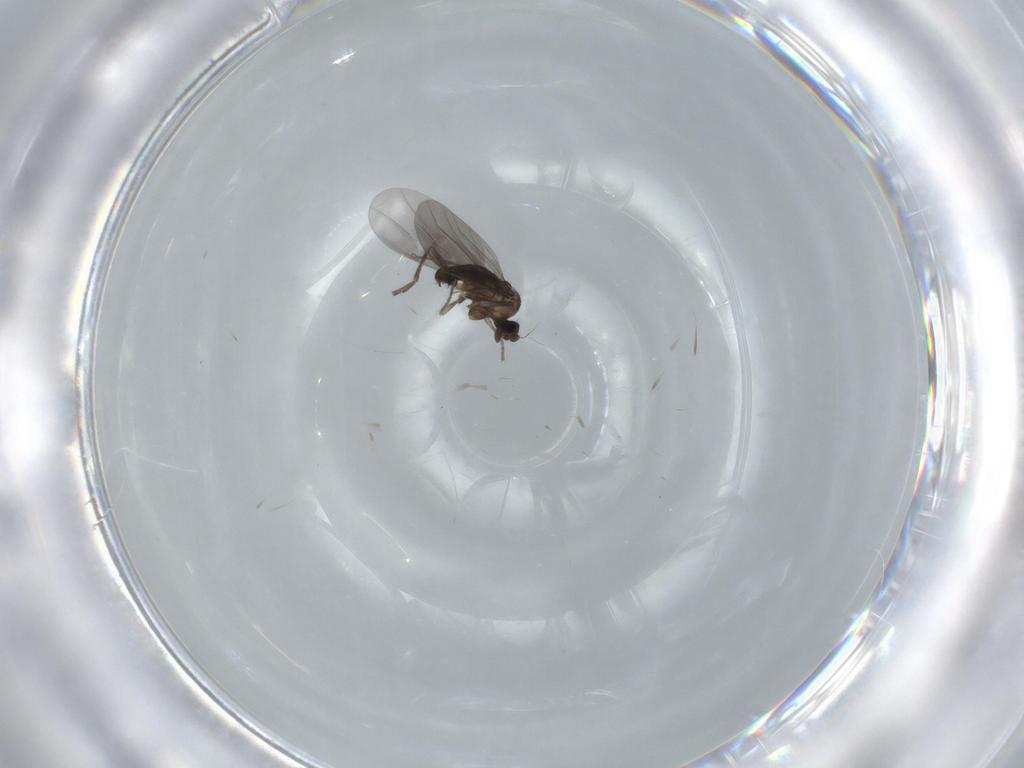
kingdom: Animalia
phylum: Arthropoda
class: Insecta
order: Diptera
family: Phoridae
